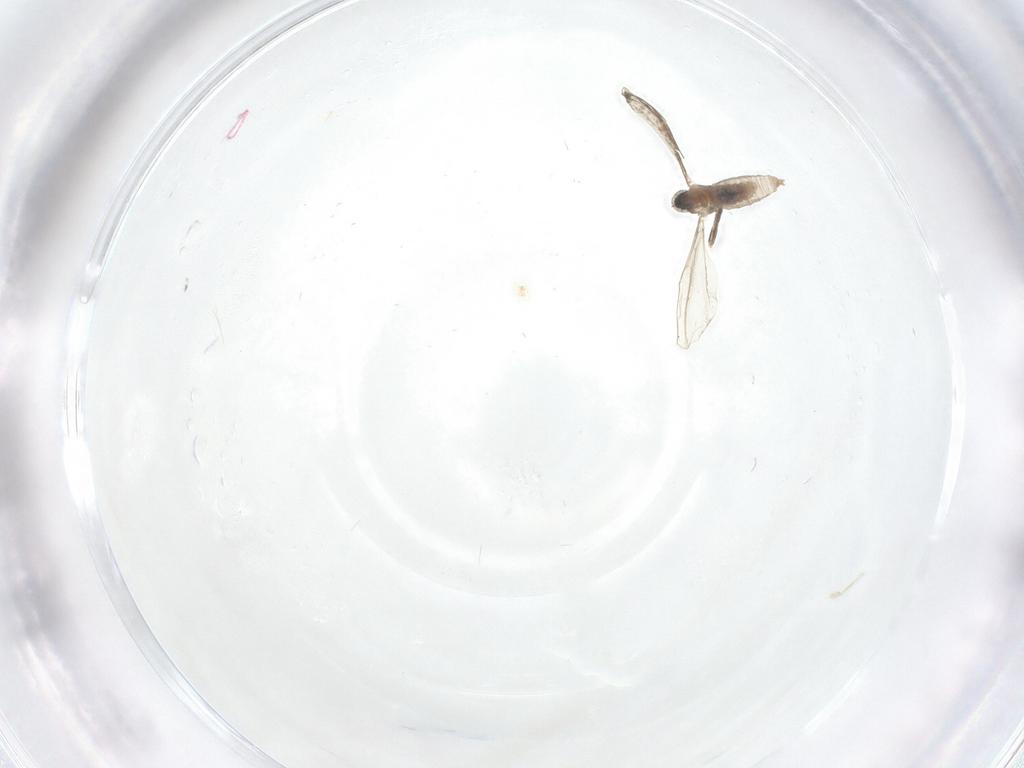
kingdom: Animalia
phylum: Arthropoda
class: Insecta
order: Diptera
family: Cecidomyiidae
